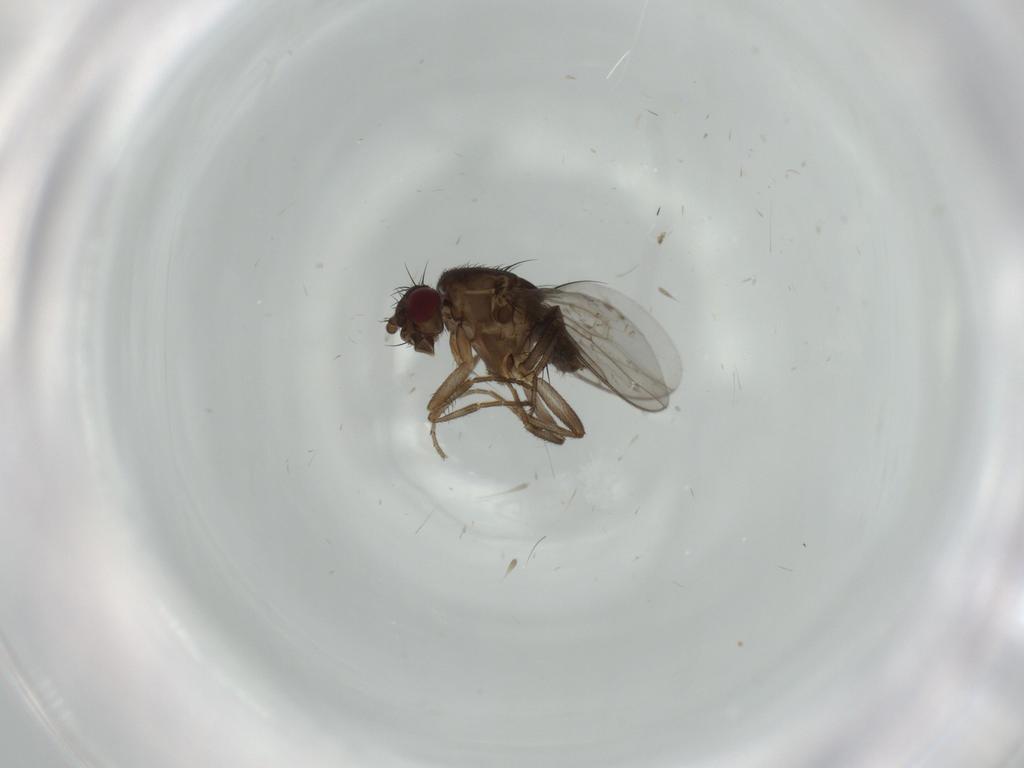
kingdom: Animalia
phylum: Arthropoda
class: Insecta
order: Diptera
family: Sphaeroceridae
